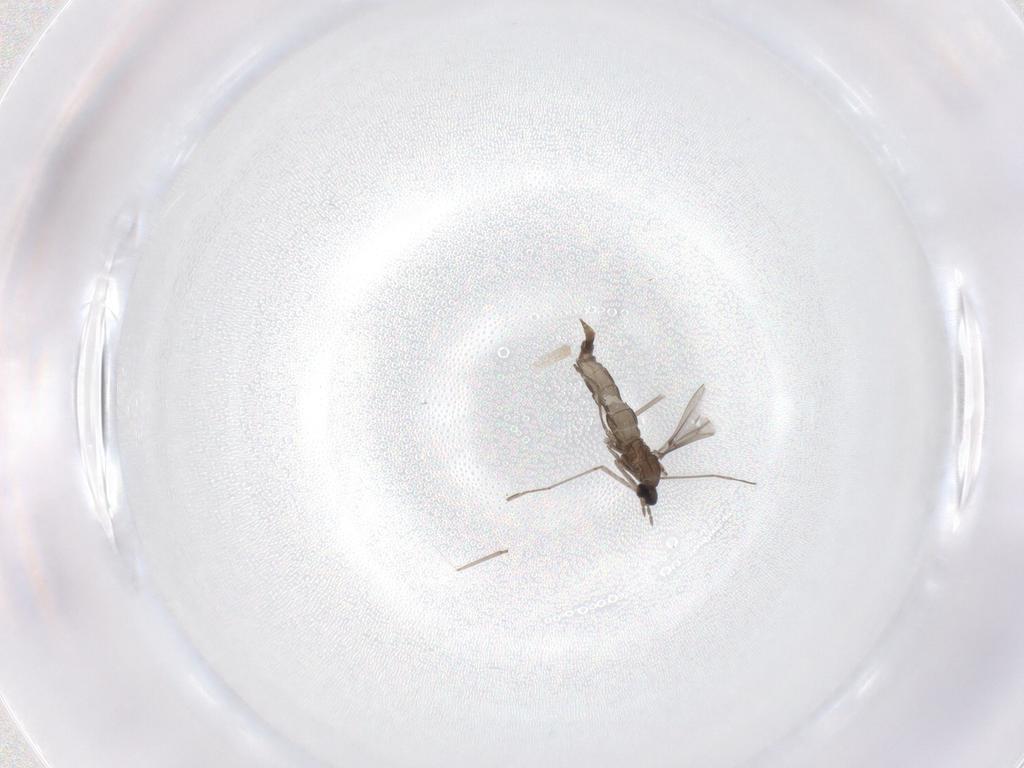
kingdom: Animalia
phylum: Arthropoda
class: Insecta
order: Diptera
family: Cecidomyiidae
